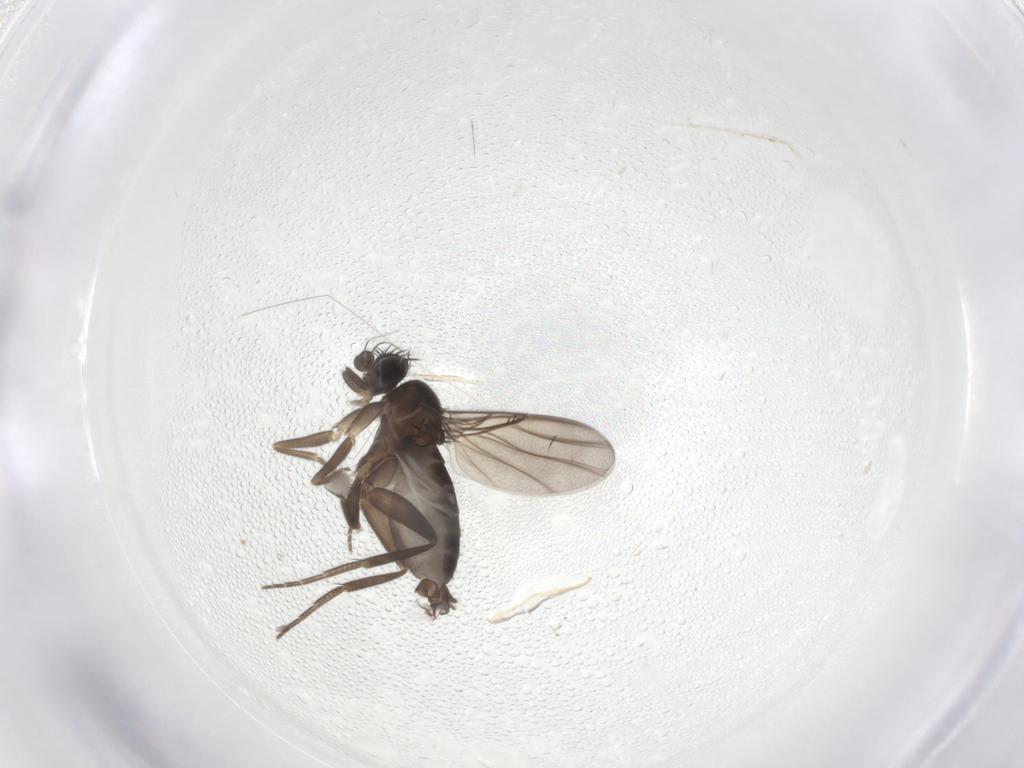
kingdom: Animalia
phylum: Arthropoda
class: Insecta
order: Diptera
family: Phoridae
